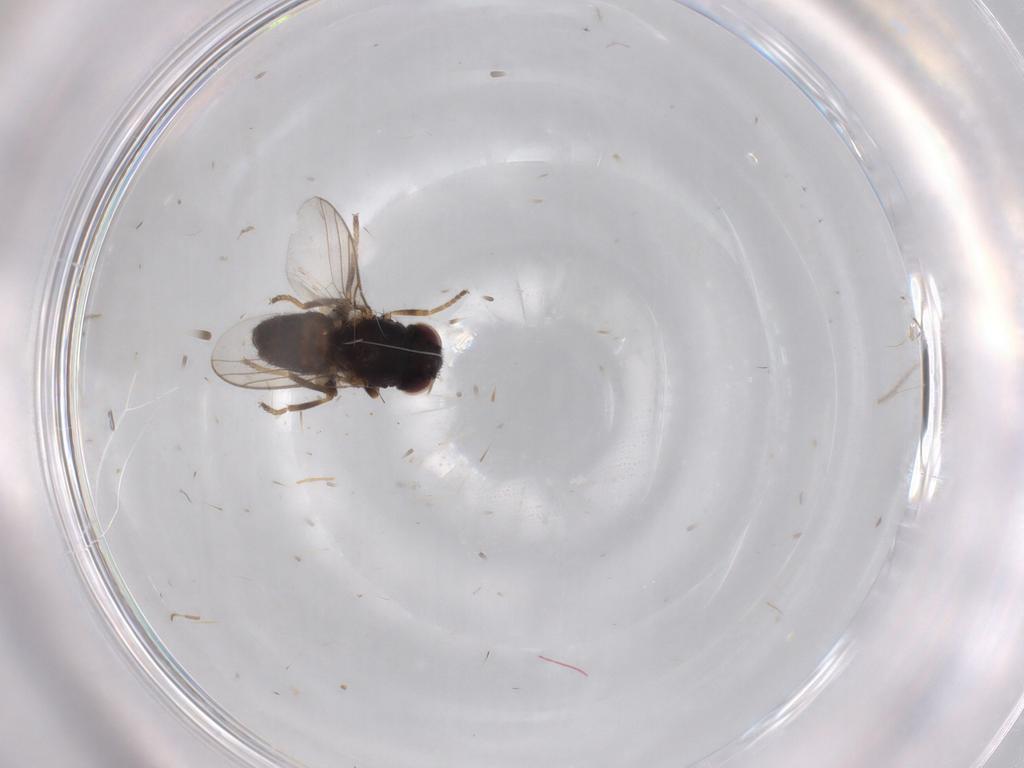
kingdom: Animalia
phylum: Arthropoda
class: Insecta
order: Diptera
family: Chloropidae
